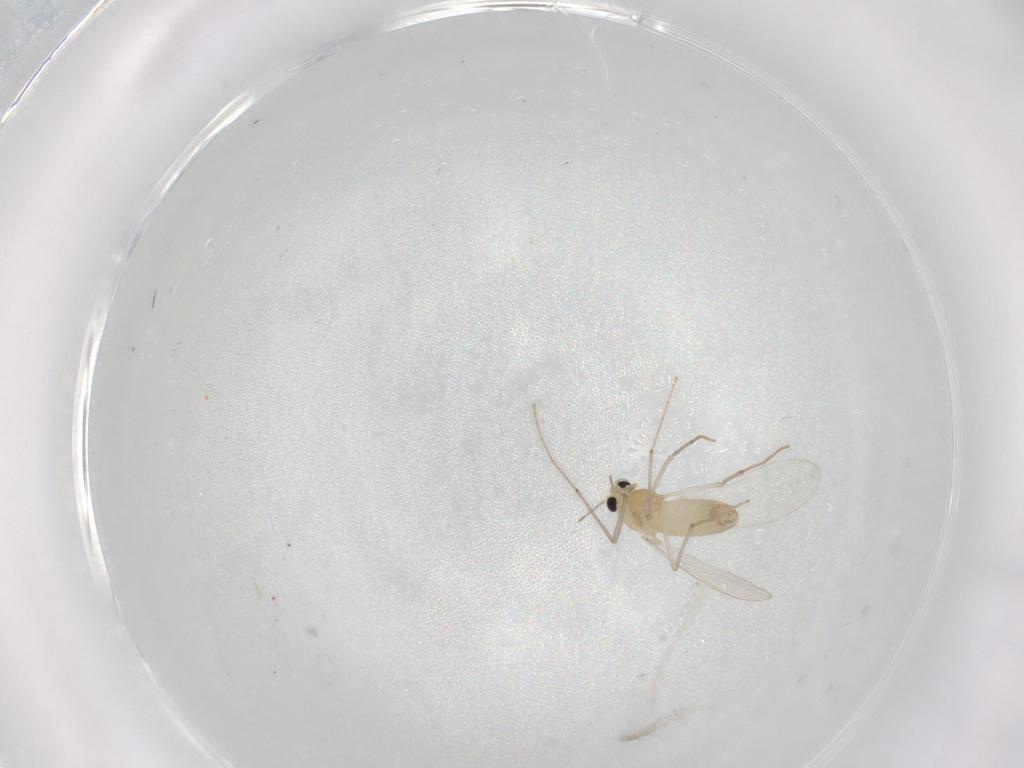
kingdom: Animalia
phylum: Arthropoda
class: Insecta
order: Diptera
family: Chironomidae
